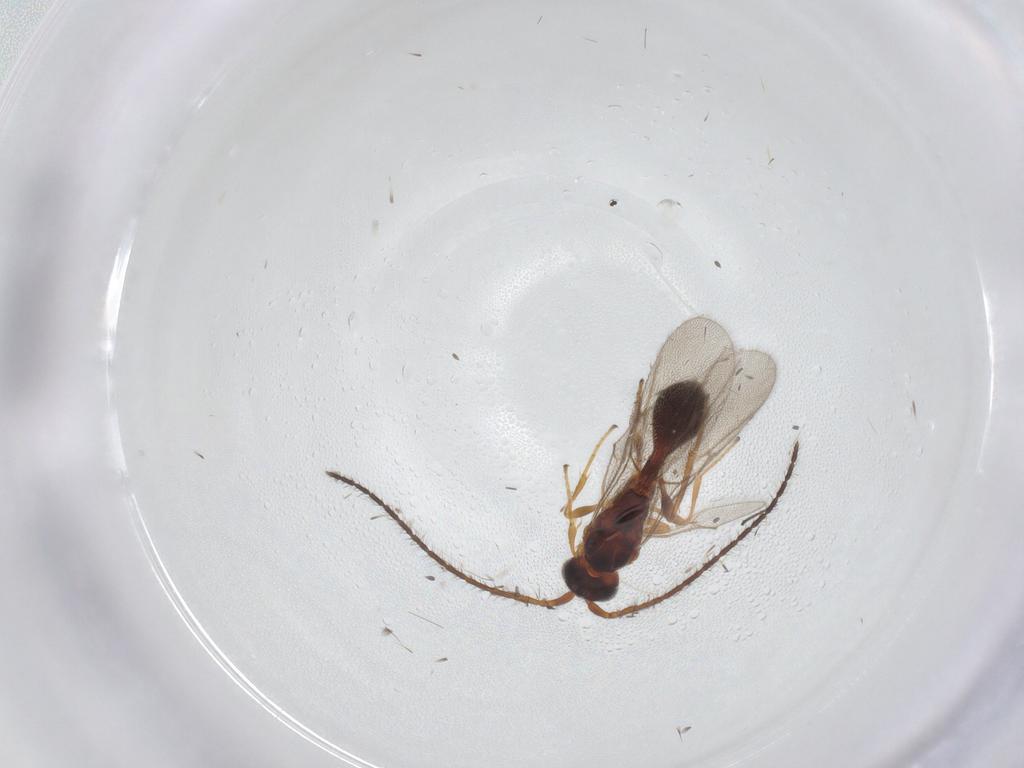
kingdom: Animalia
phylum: Arthropoda
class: Insecta
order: Hymenoptera
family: Diapriidae
